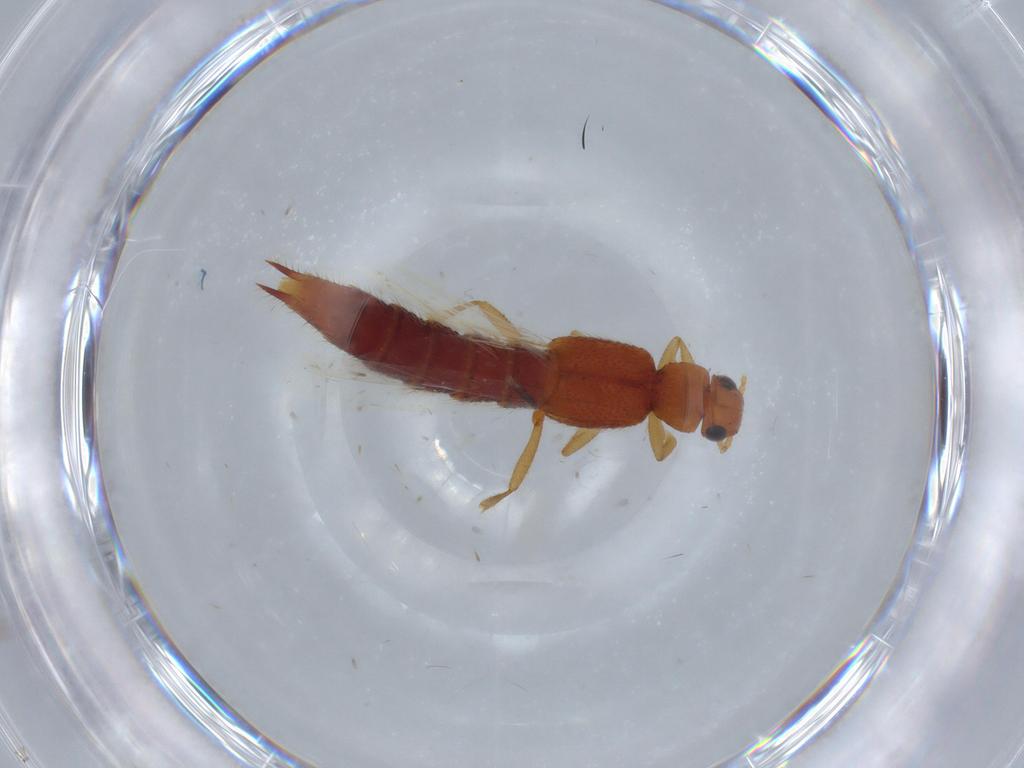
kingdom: Animalia
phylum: Arthropoda
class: Insecta
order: Coleoptera
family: Staphylinidae
